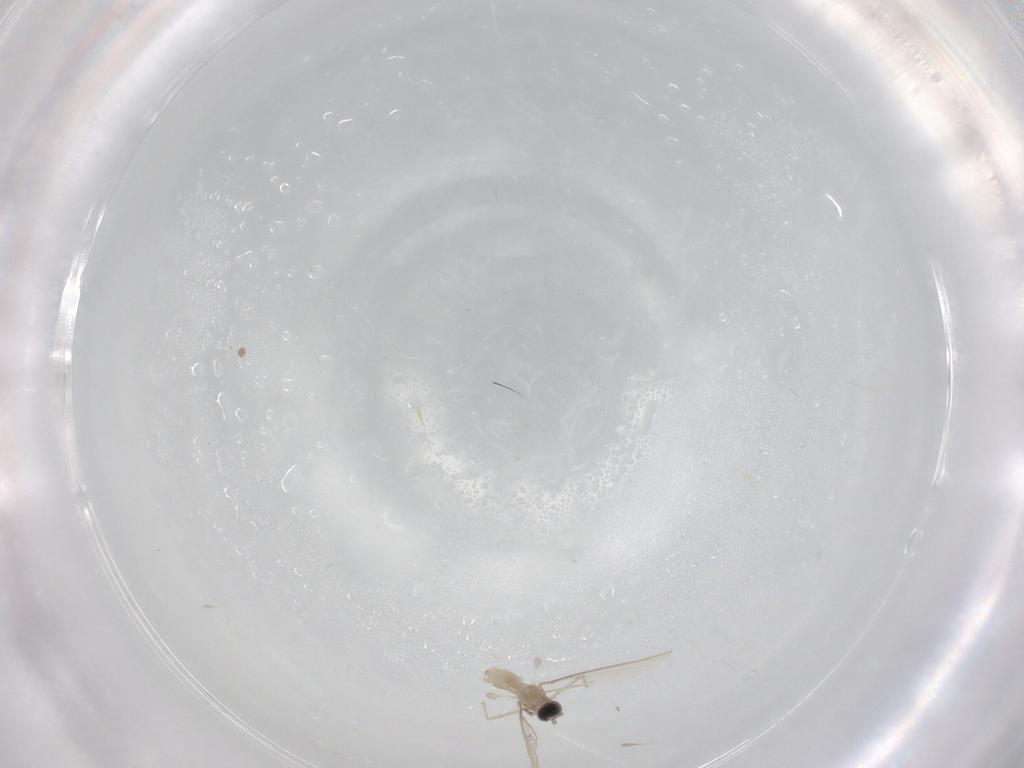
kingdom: Animalia
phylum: Arthropoda
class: Insecta
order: Diptera
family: Cecidomyiidae
